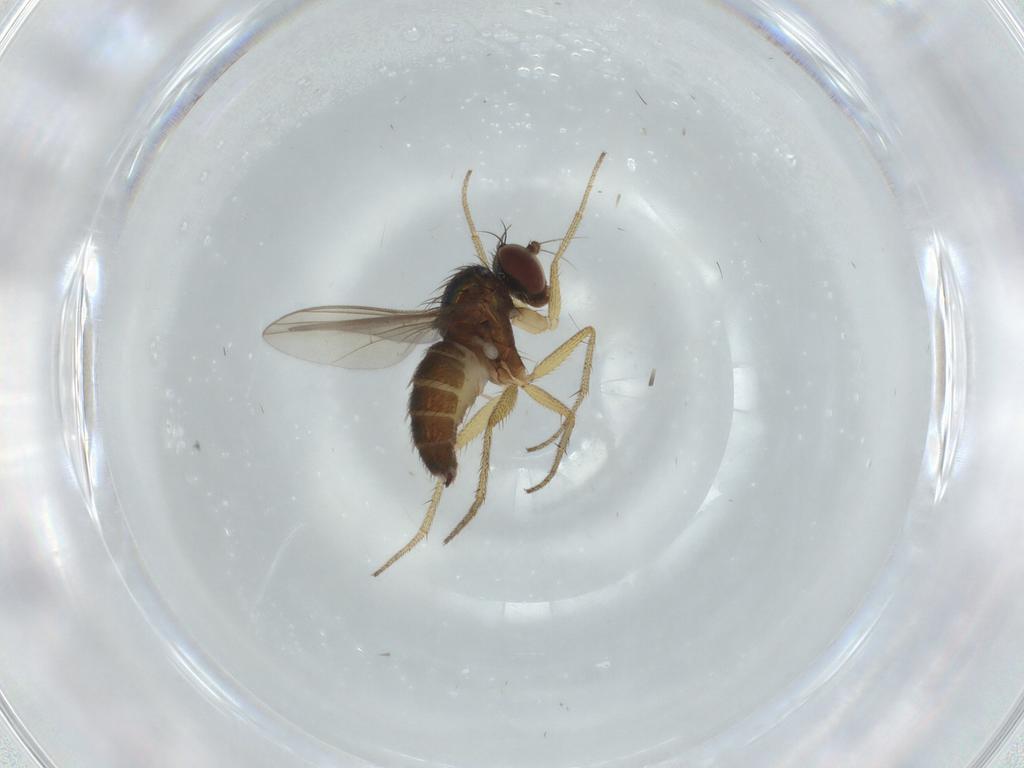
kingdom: Animalia
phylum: Arthropoda
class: Insecta
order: Diptera
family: Dolichopodidae
